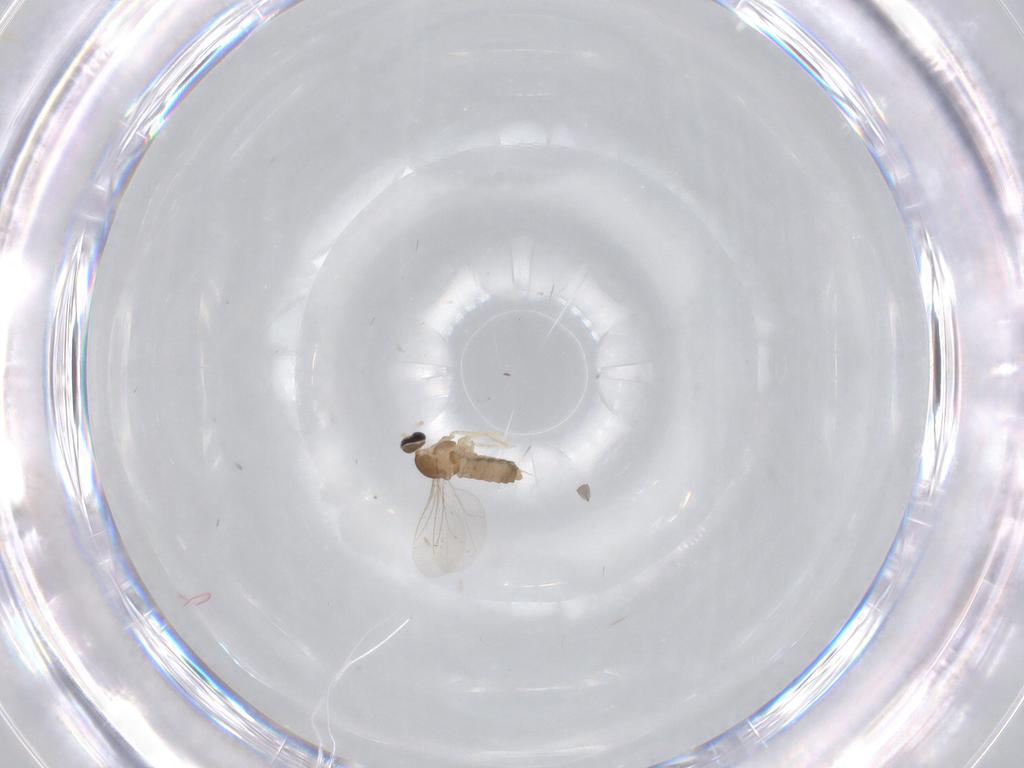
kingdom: Animalia
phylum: Arthropoda
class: Insecta
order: Diptera
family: Cecidomyiidae
